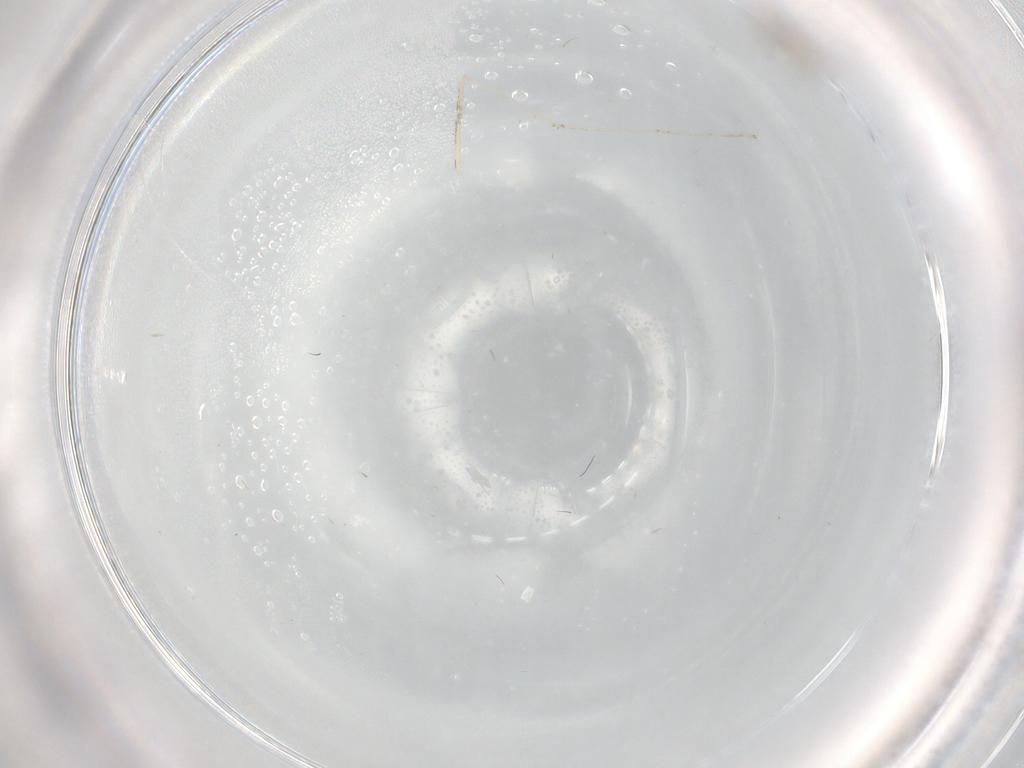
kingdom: Animalia
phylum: Arthropoda
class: Insecta
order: Diptera
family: Cecidomyiidae
